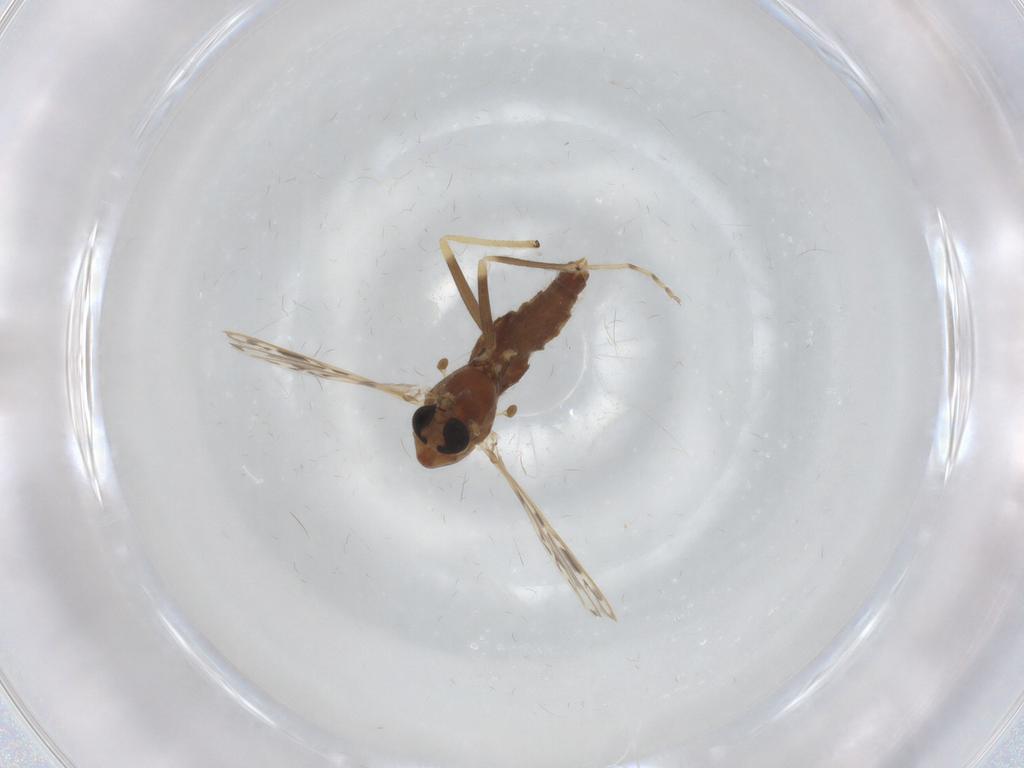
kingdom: Animalia
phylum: Arthropoda
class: Insecta
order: Diptera
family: Chironomidae
